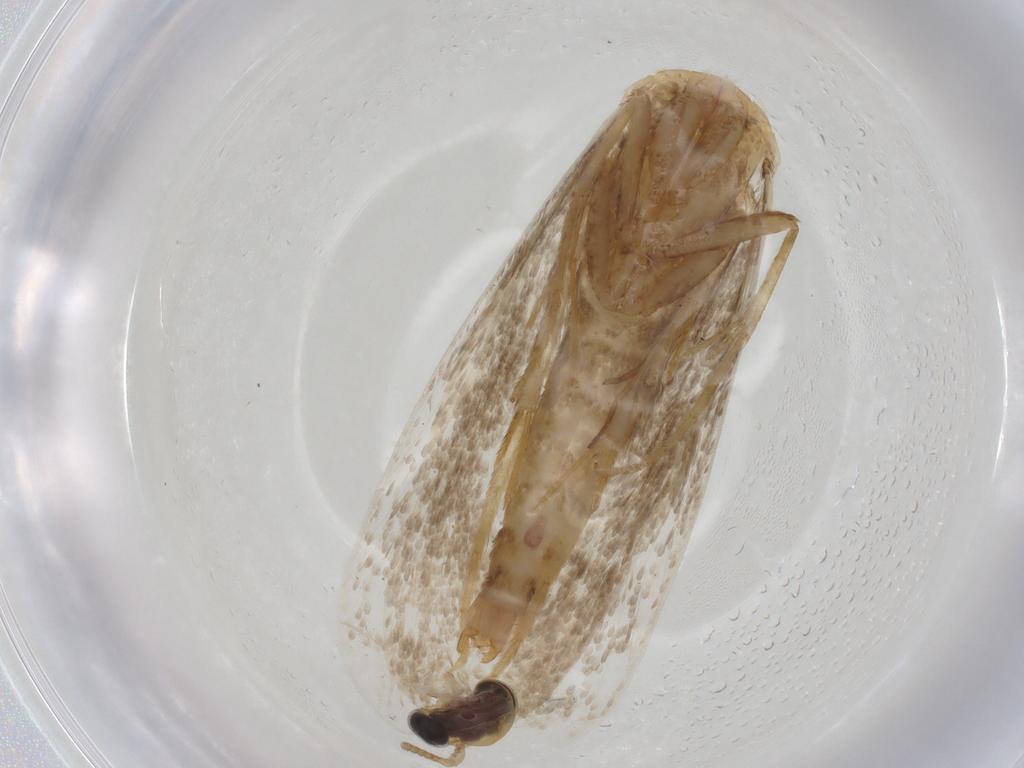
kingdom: Animalia
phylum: Arthropoda
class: Insecta
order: Lepidoptera
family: Tineidae
